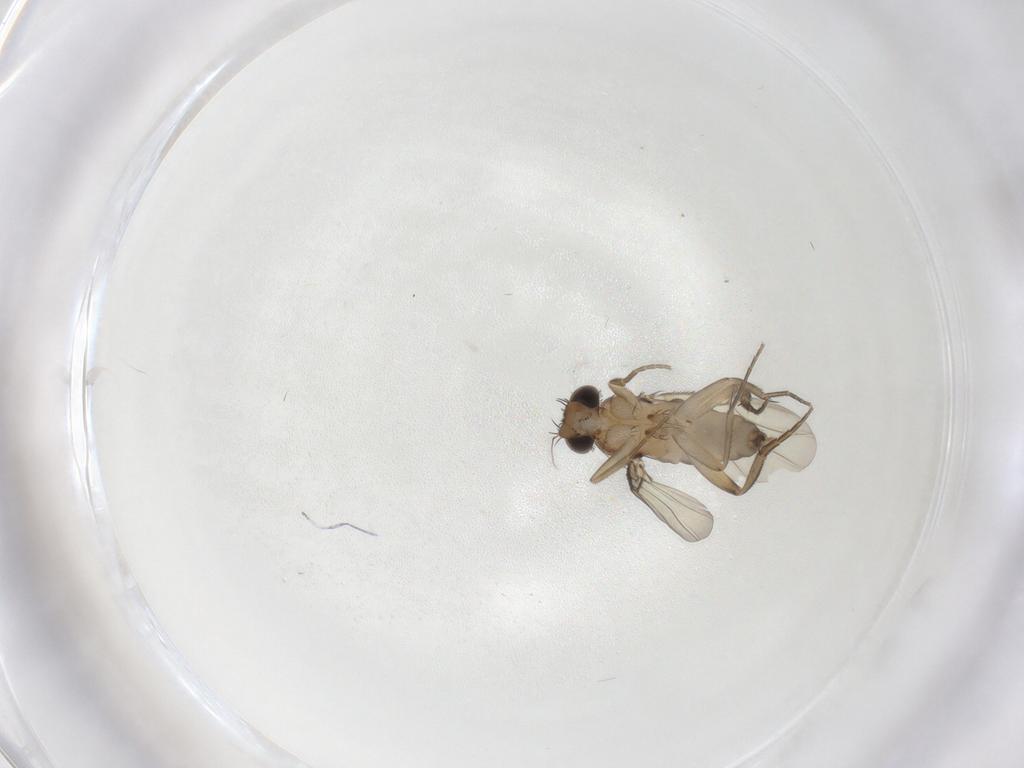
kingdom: Animalia
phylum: Arthropoda
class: Insecta
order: Diptera
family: Phoridae
